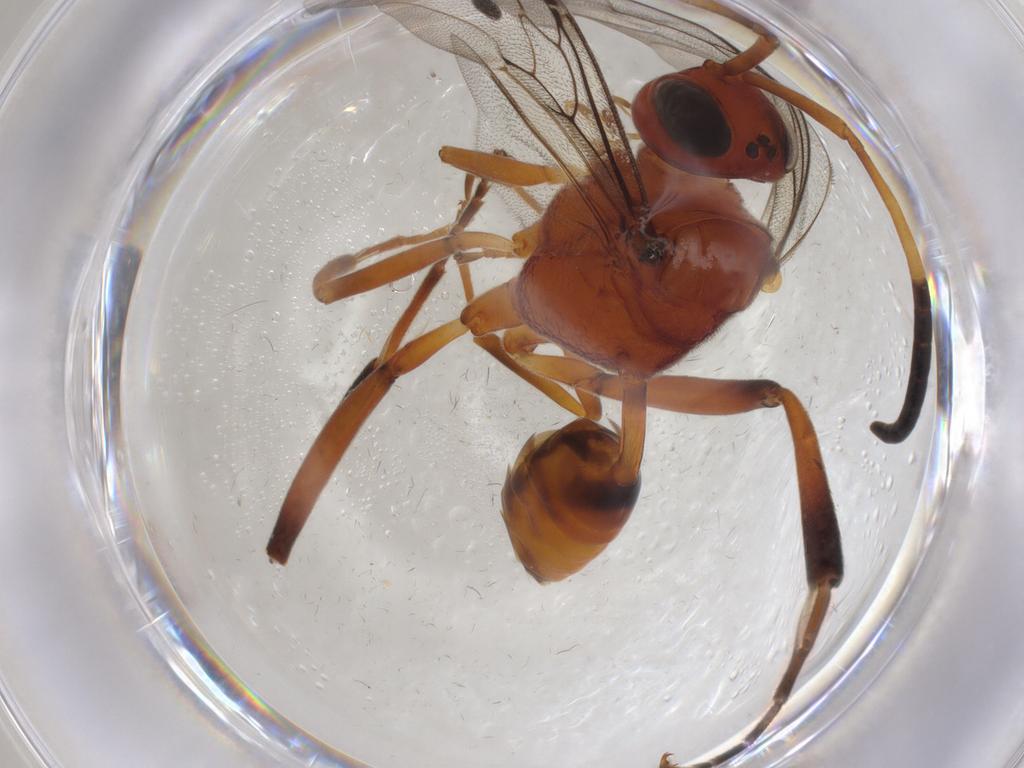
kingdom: Animalia
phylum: Arthropoda
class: Insecta
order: Hymenoptera
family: Evaniidae
